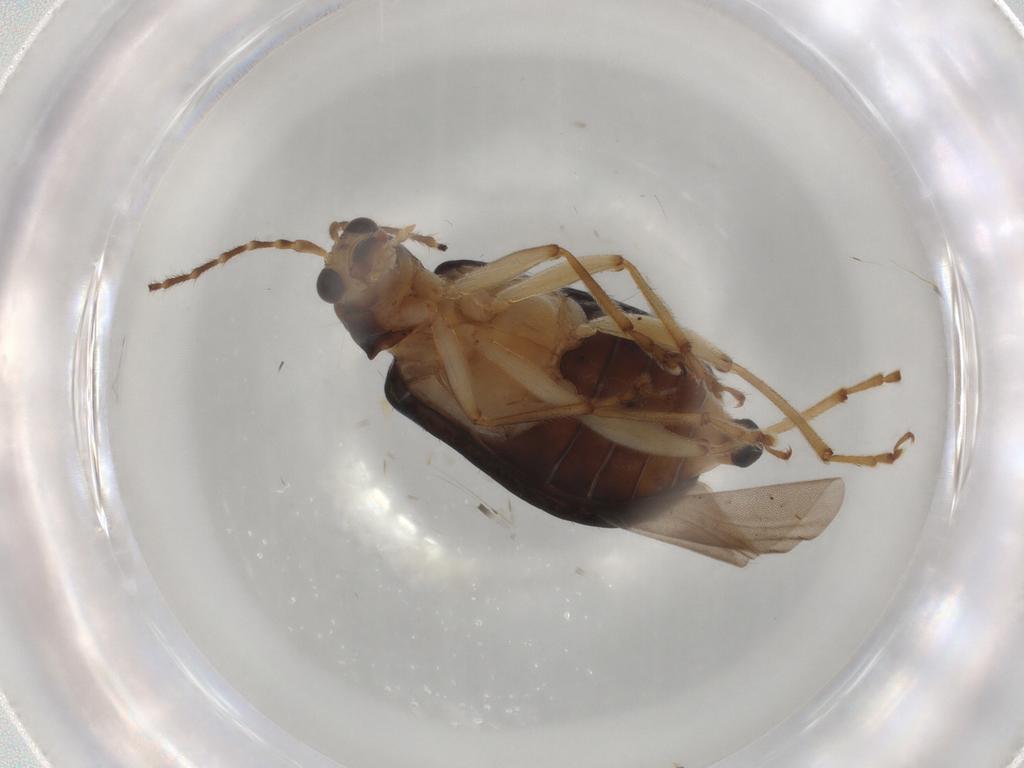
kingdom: Animalia
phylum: Arthropoda
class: Insecta
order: Coleoptera
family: Chrysomelidae
